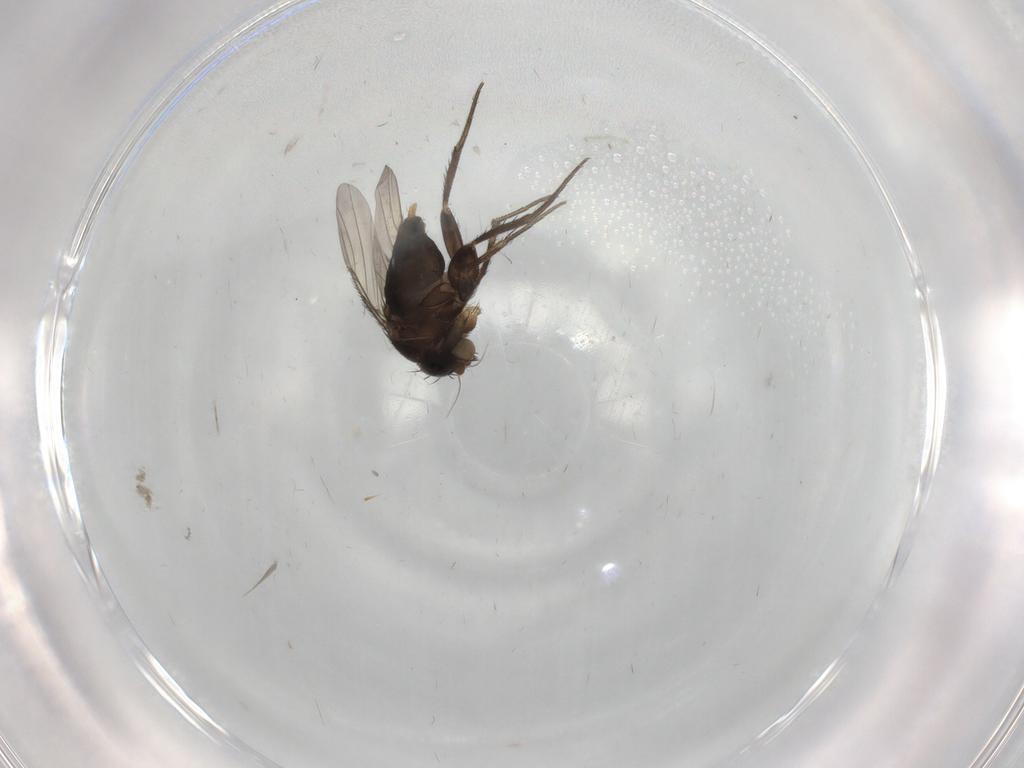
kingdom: Animalia
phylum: Arthropoda
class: Insecta
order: Diptera
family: Phoridae
